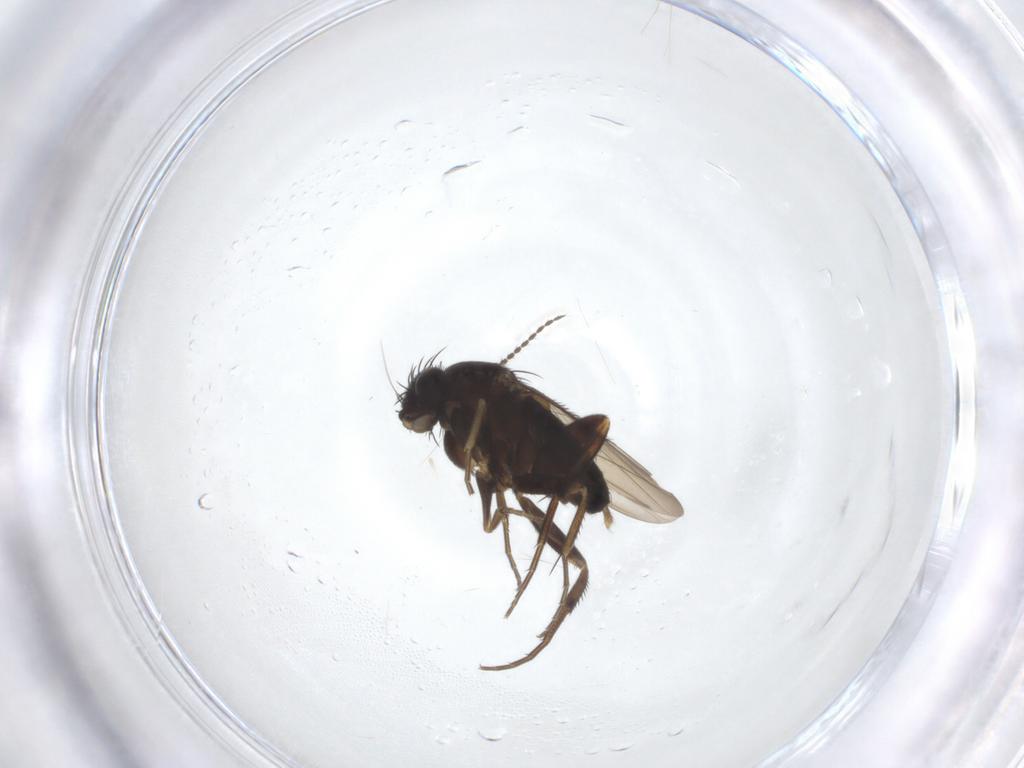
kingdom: Animalia
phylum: Arthropoda
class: Insecta
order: Diptera
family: Phoridae
